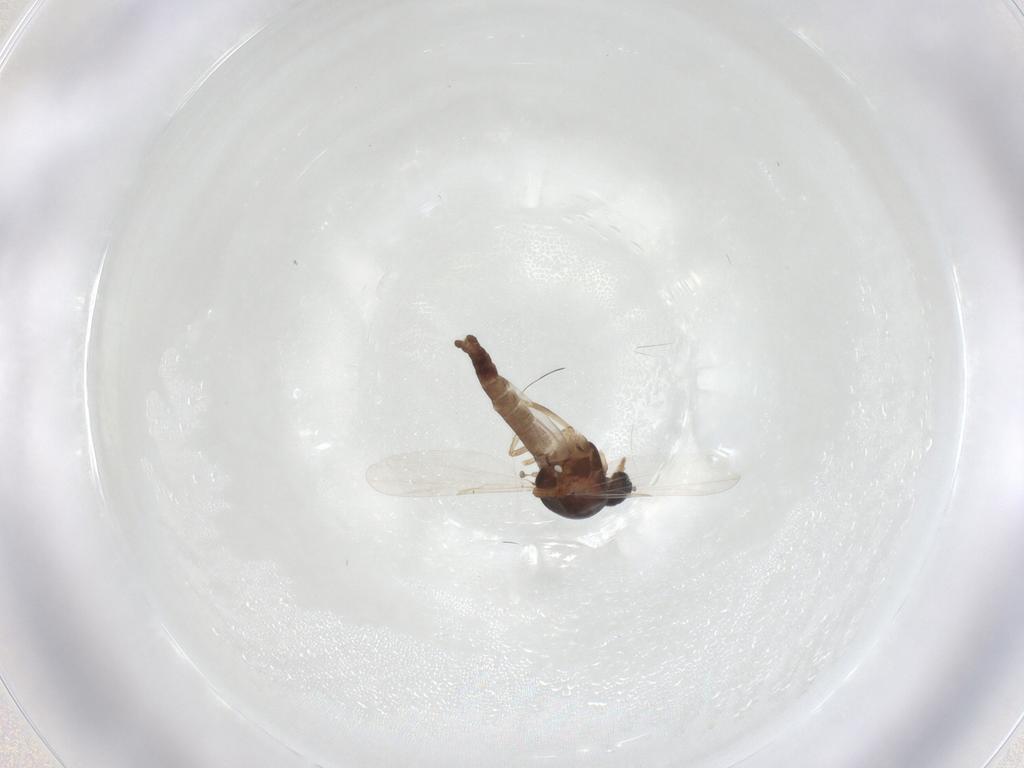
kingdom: Animalia
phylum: Arthropoda
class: Insecta
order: Diptera
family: Ceratopogonidae
